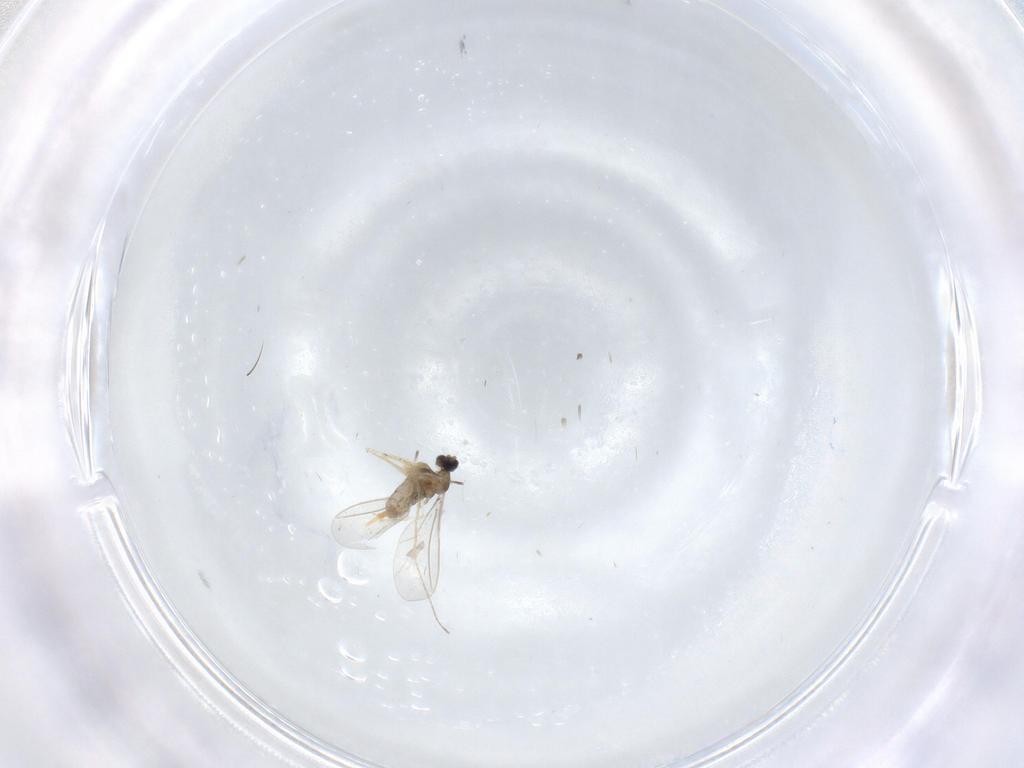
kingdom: Animalia
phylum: Arthropoda
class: Insecta
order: Diptera
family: Cecidomyiidae
